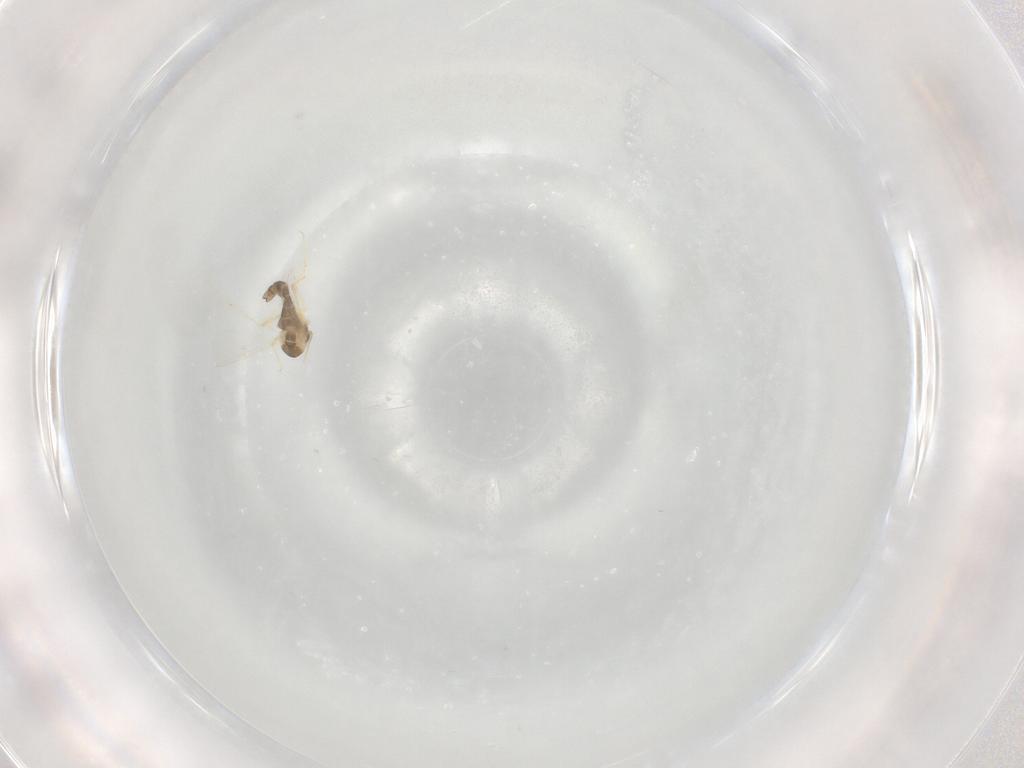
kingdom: Animalia
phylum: Arthropoda
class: Insecta
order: Diptera
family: Chironomidae
